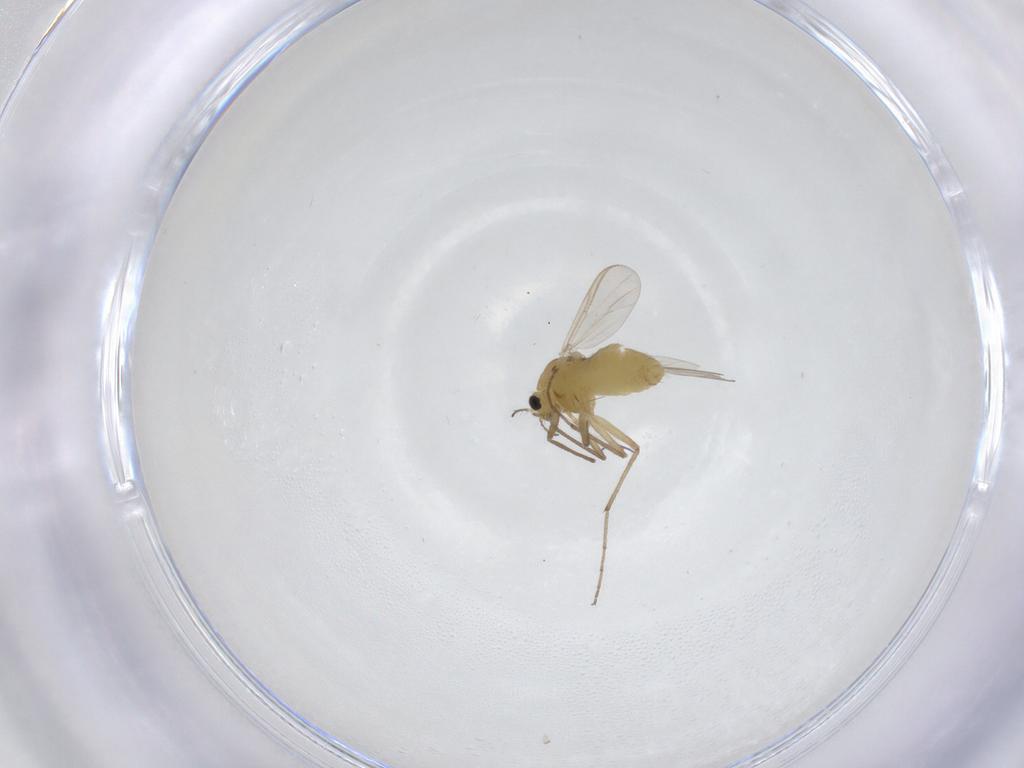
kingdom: Animalia
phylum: Arthropoda
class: Insecta
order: Diptera
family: Chironomidae
